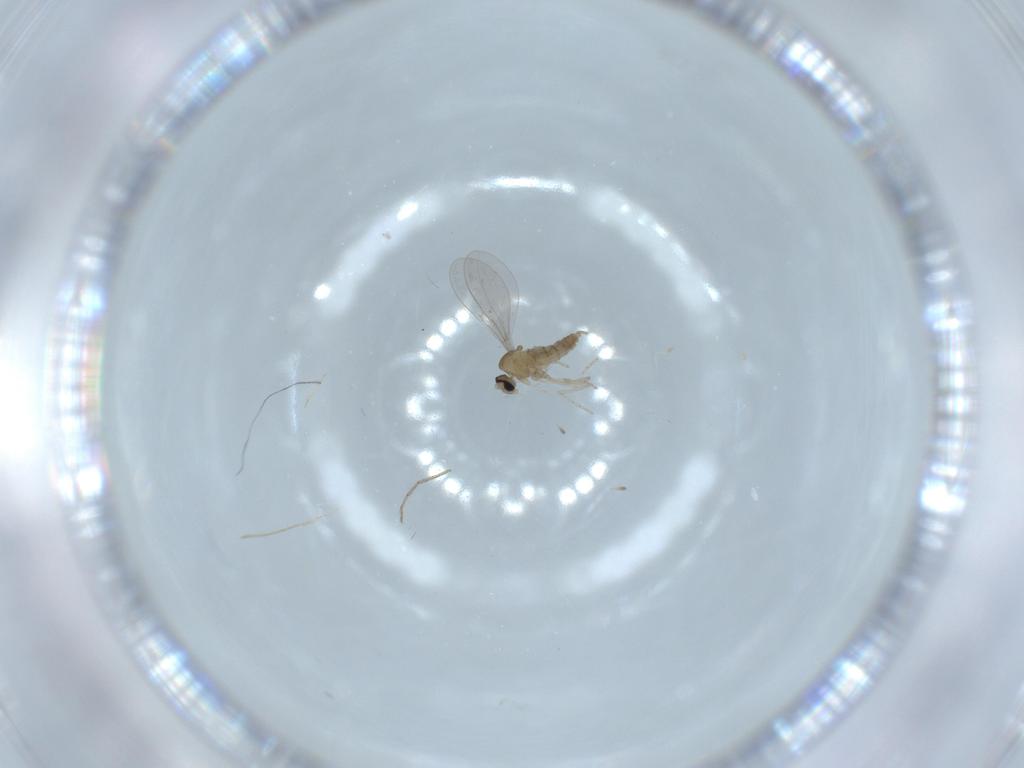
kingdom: Animalia
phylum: Arthropoda
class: Insecta
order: Diptera
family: Cecidomyiidae
